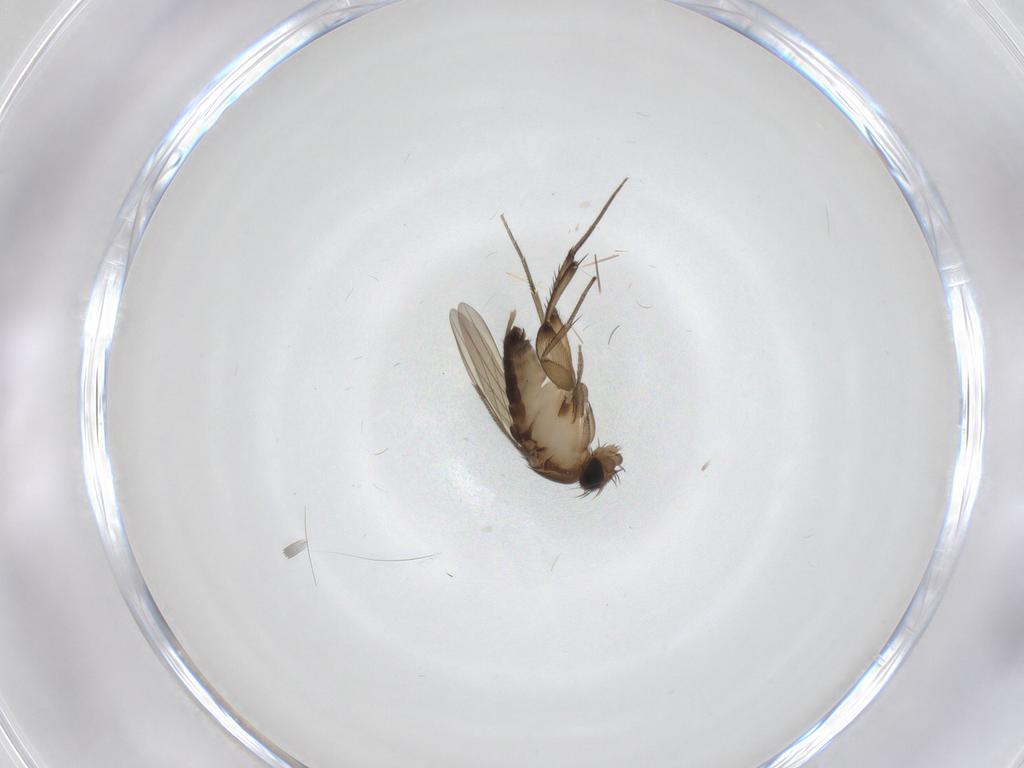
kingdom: Animalia
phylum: Arthropoda
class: Insecta
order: Diptera
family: Phoridae
